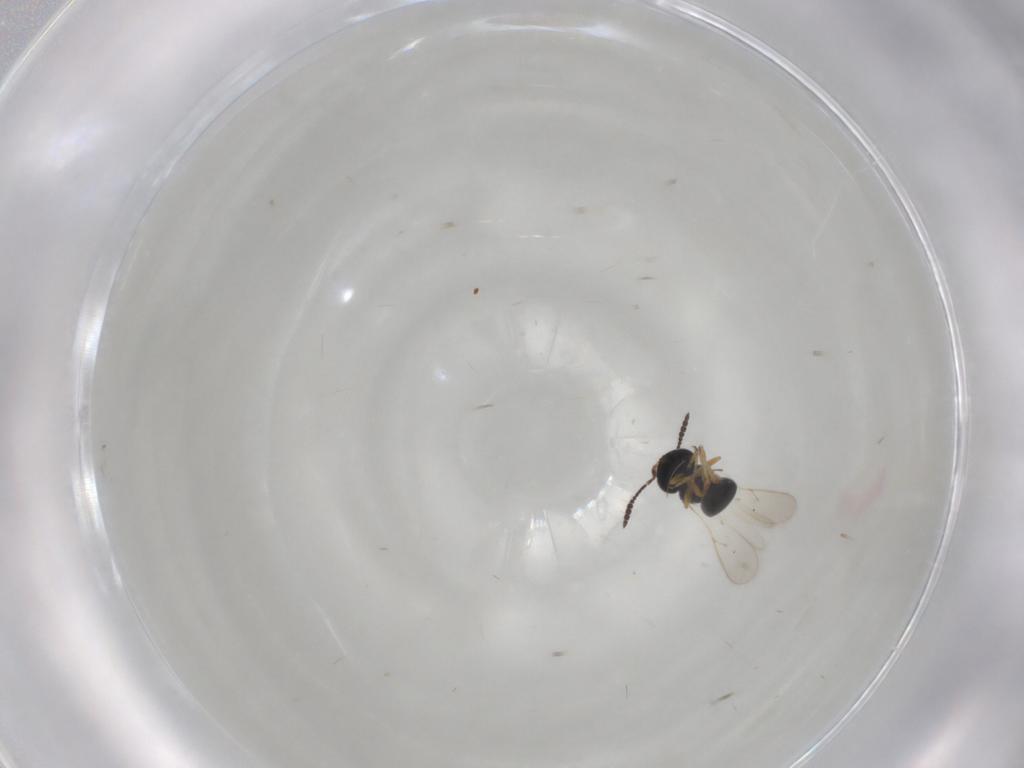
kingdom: Animalia
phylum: Arthropoda
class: Insecta
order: Hymenoptera
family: Scelionidae
